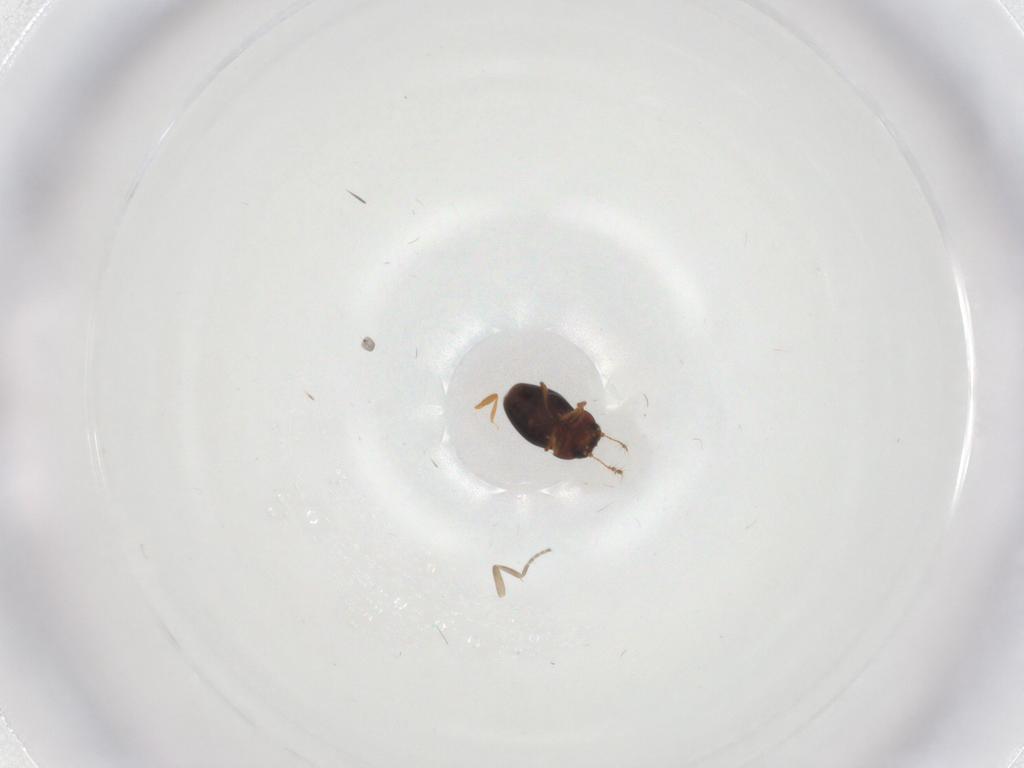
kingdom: Animalia
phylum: Arthropoda
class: Insecta
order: Coleoptera
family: Ptiliidae
